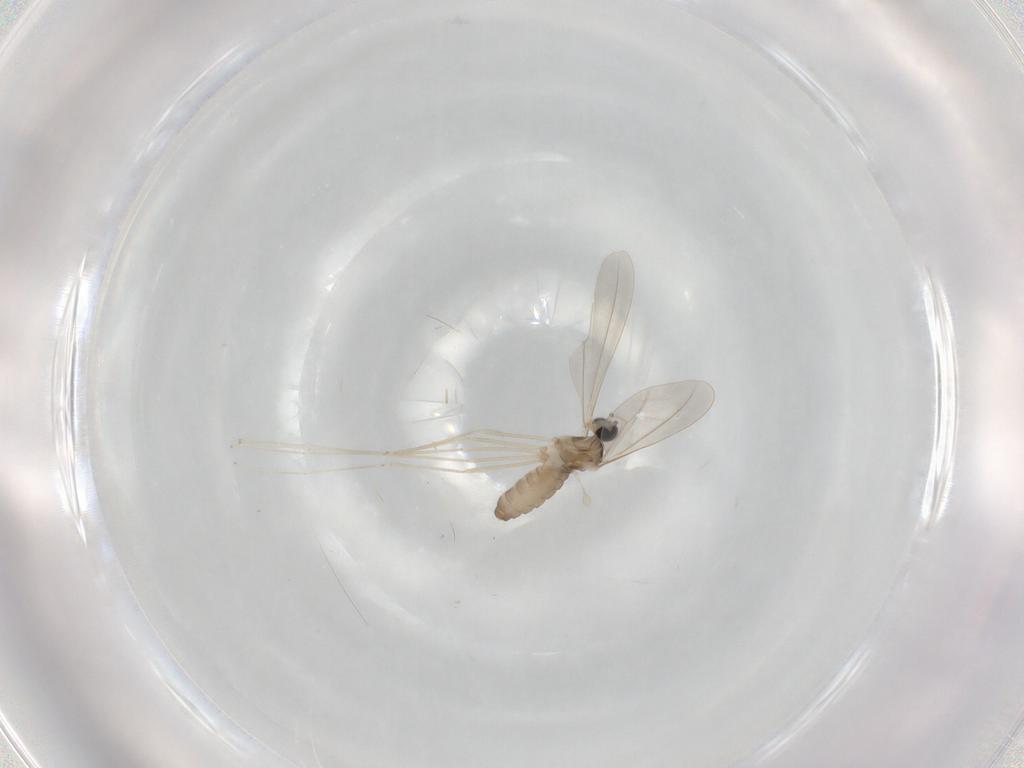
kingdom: Animalia
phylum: Arthropoda
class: Insecta
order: Diptera
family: Cecidomyiidae
